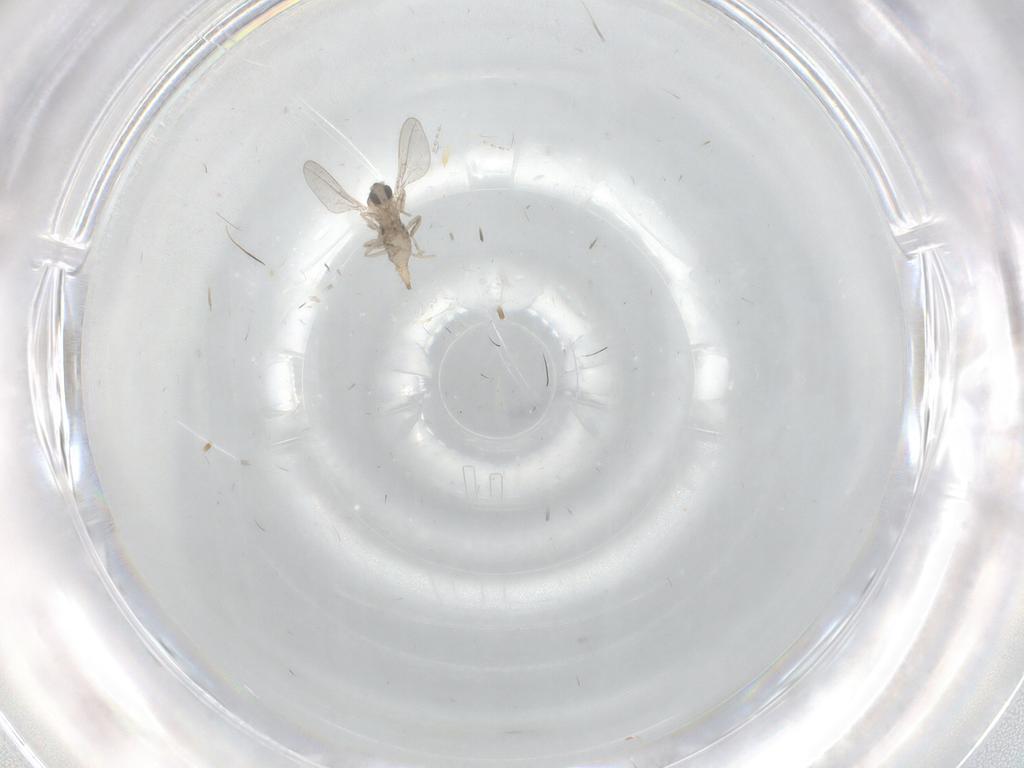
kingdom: Animalia
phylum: Arthropoda
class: Insecta
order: Diptera
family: Cecidomyiidae
